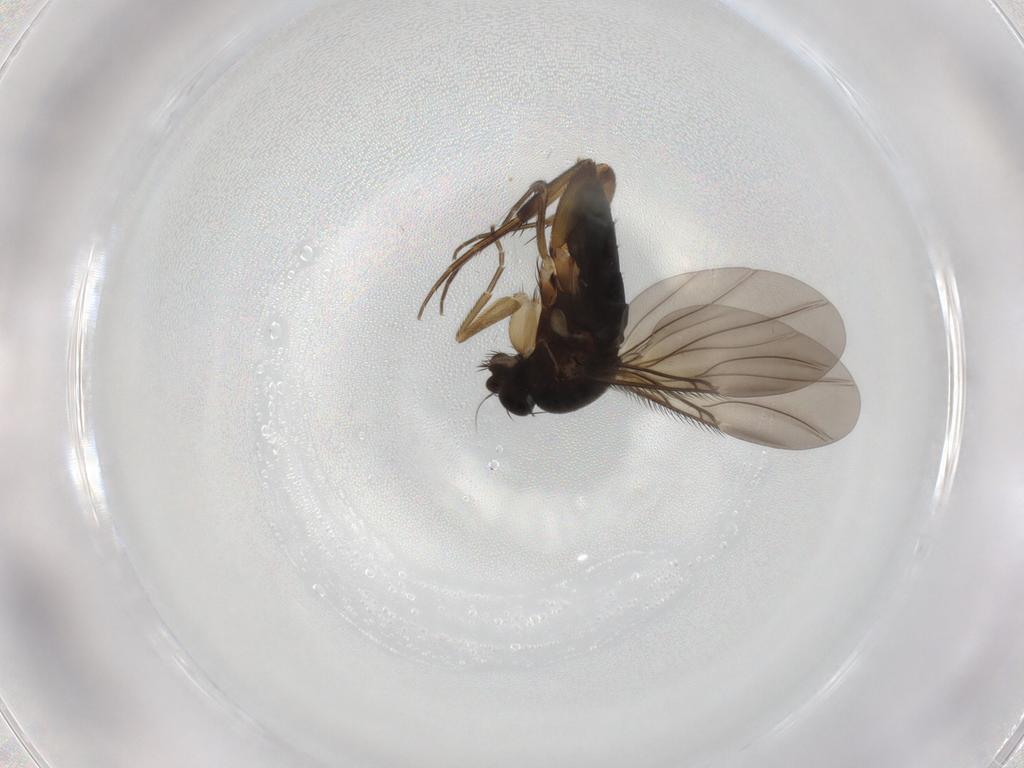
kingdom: Animalia
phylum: Arthropoda
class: Insecta
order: Diptera
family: Phoridae
